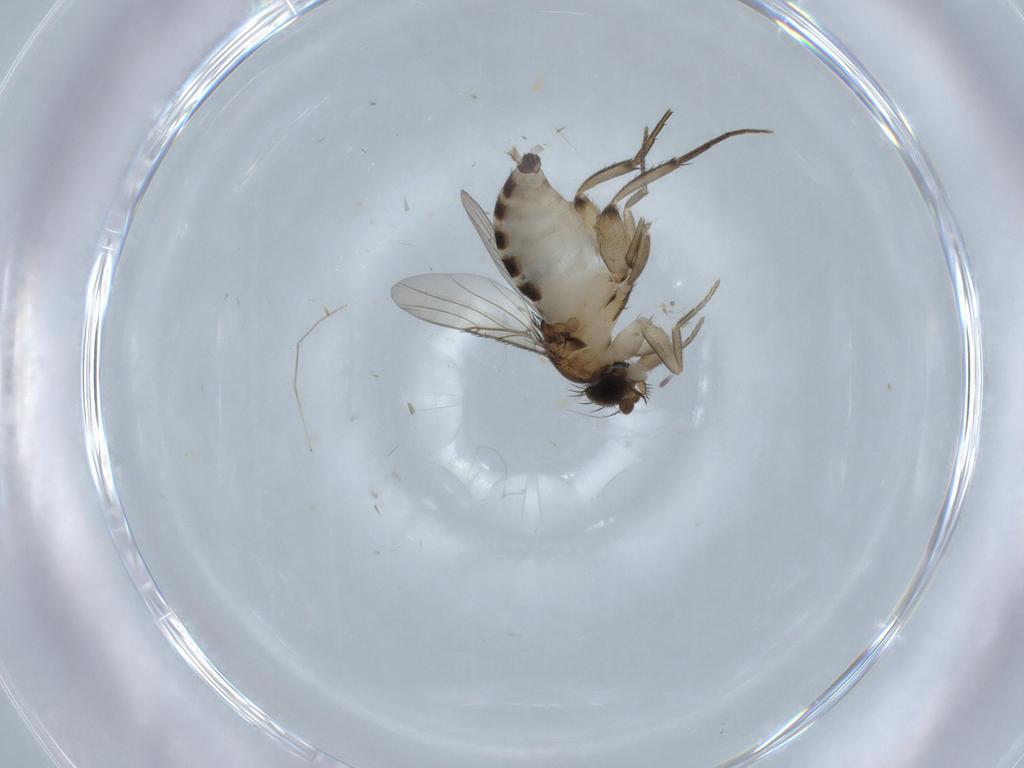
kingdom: Animalia
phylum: Arthropoda
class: Insecta
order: Diptera
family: Phoridae
